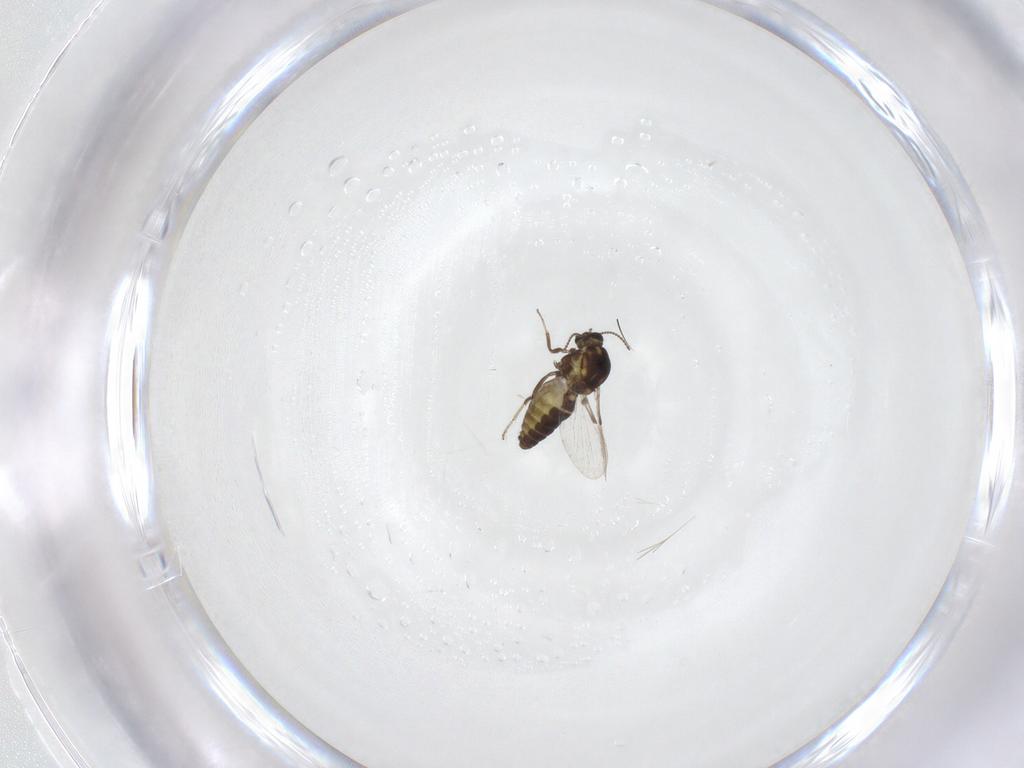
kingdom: Animalia
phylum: Arthropoda
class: Insecta
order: Diptera
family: Ceratopogonidae
